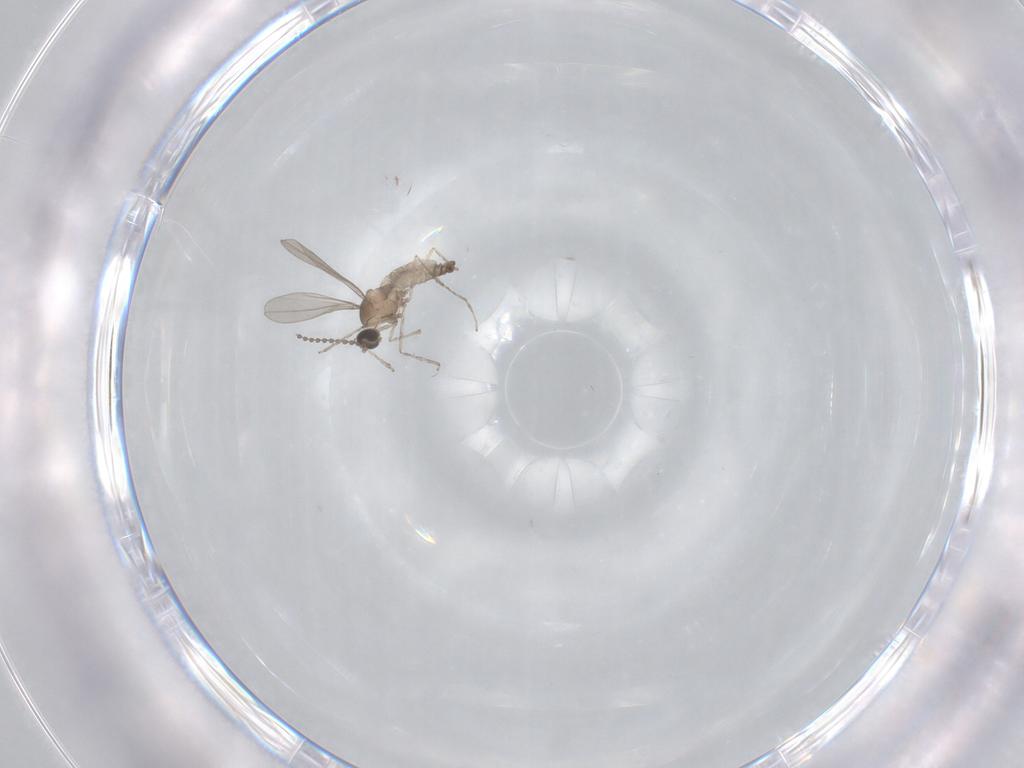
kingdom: Animalia
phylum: Arthropoda
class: Insecta
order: Diptera
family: Cecidomyiidae
